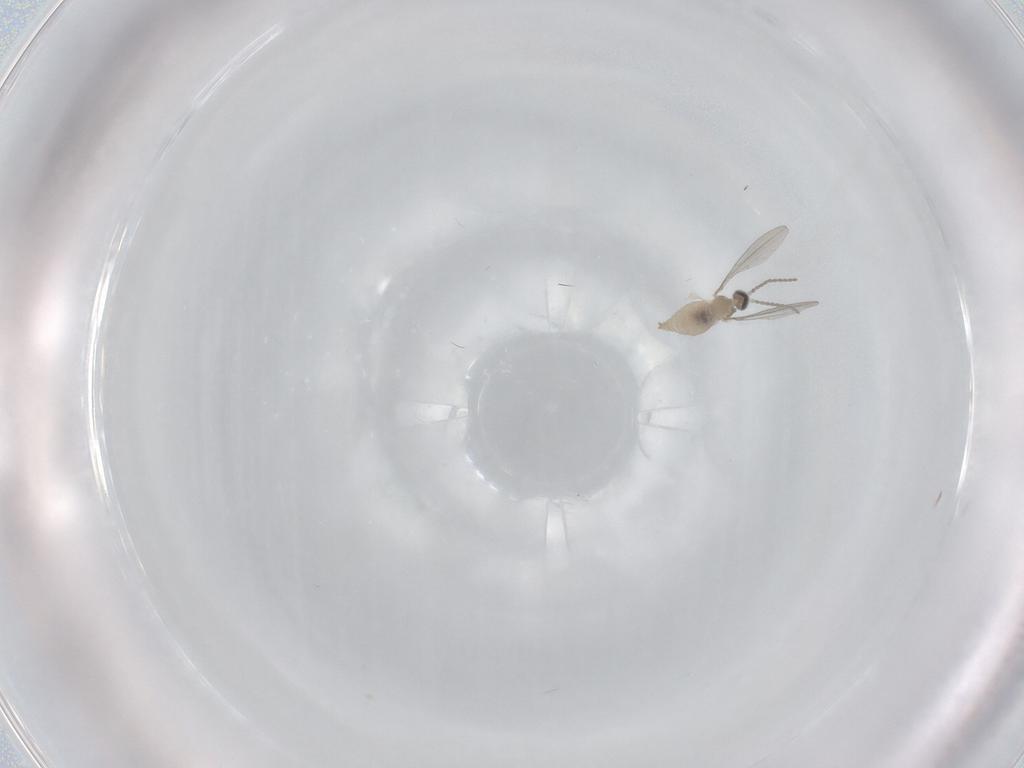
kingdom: Animalia
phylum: Arthropoda
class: Insecta
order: Diptera
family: Cecidomyiidae
